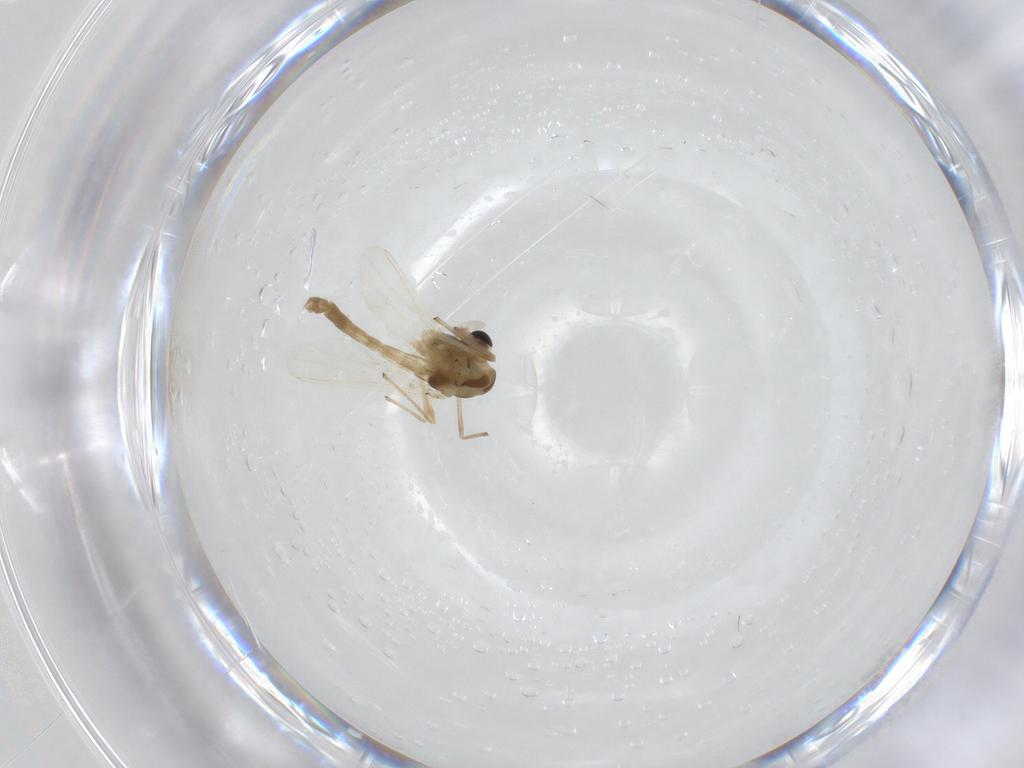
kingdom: Animalia
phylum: Arthropoda
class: Insecta
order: Diptera
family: Chironomidae
